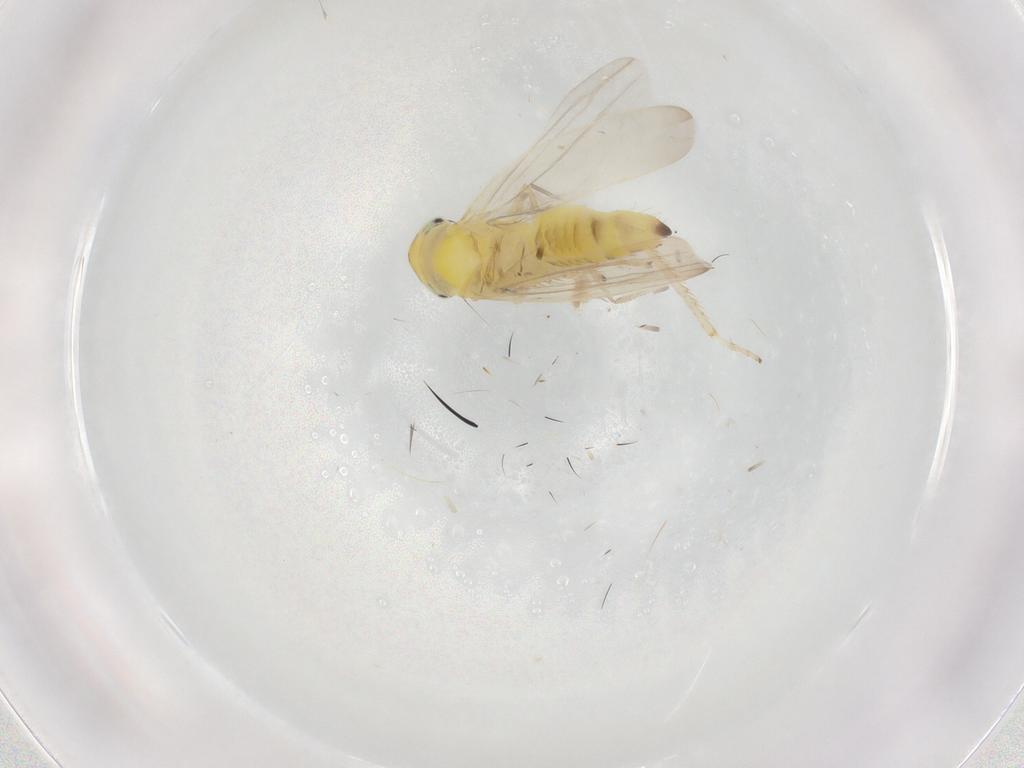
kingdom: Animalia
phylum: Arthropoda
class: Insecta
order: Hemiptera
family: Cicadellidae
